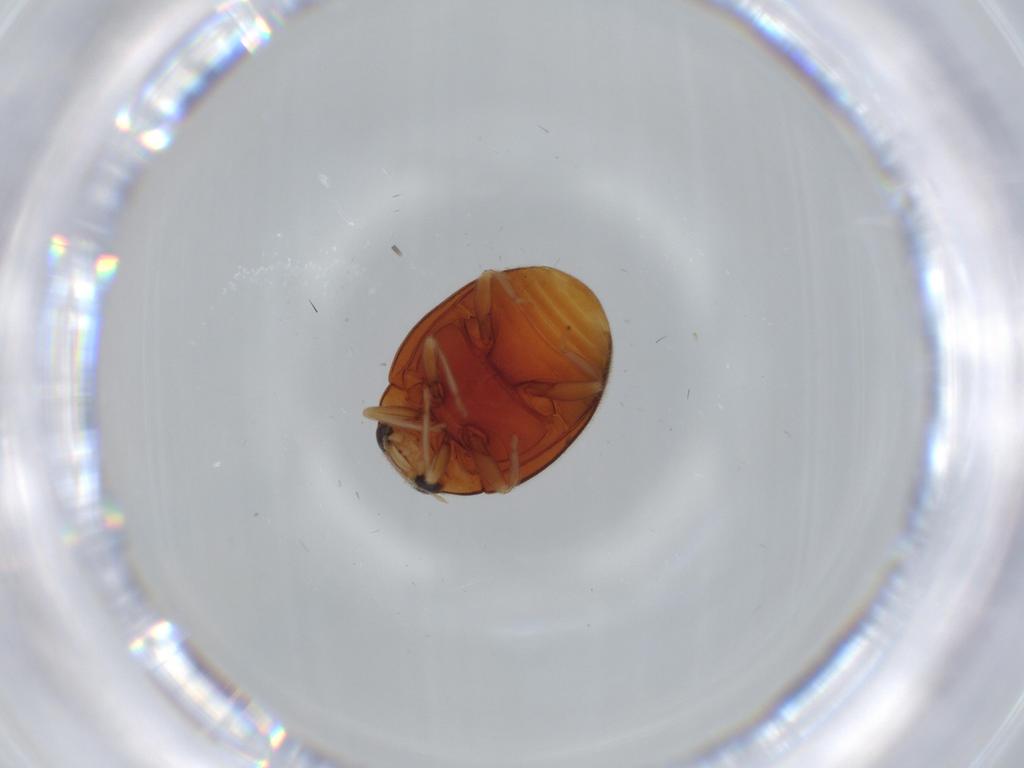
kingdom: Animalia
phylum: Arthropoda
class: Insecta
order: Coleoptera
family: Coccinellidae
